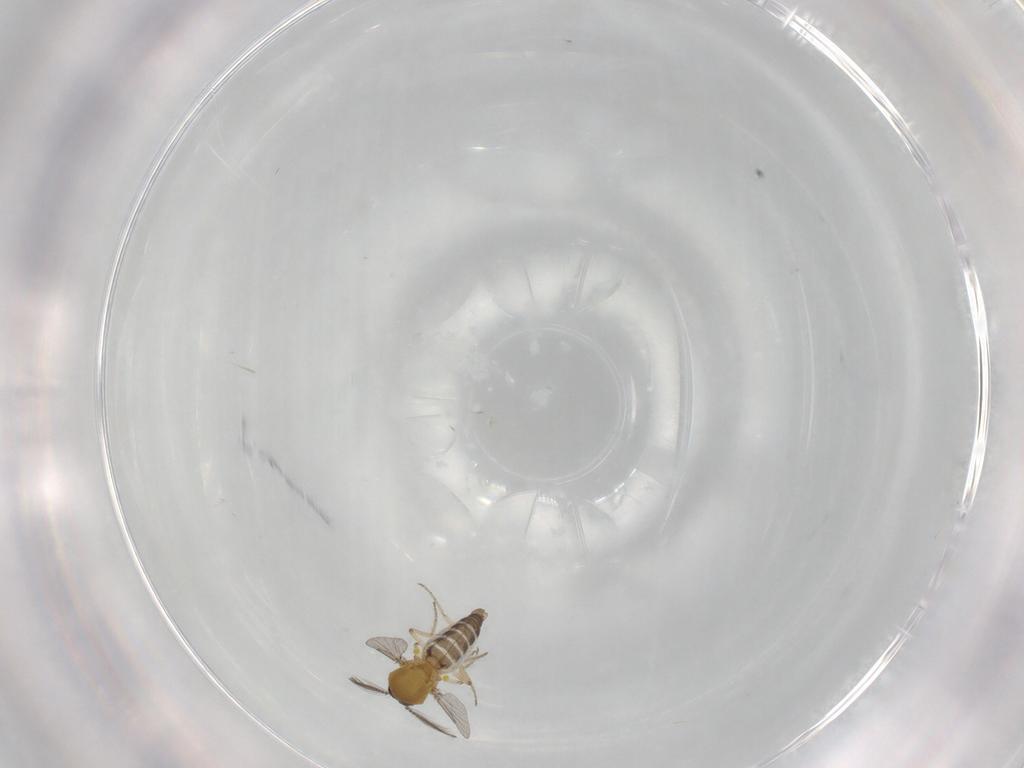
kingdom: Animalia
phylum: Arthropoda
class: Insecta
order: Diptera
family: Ceratopogonidae
